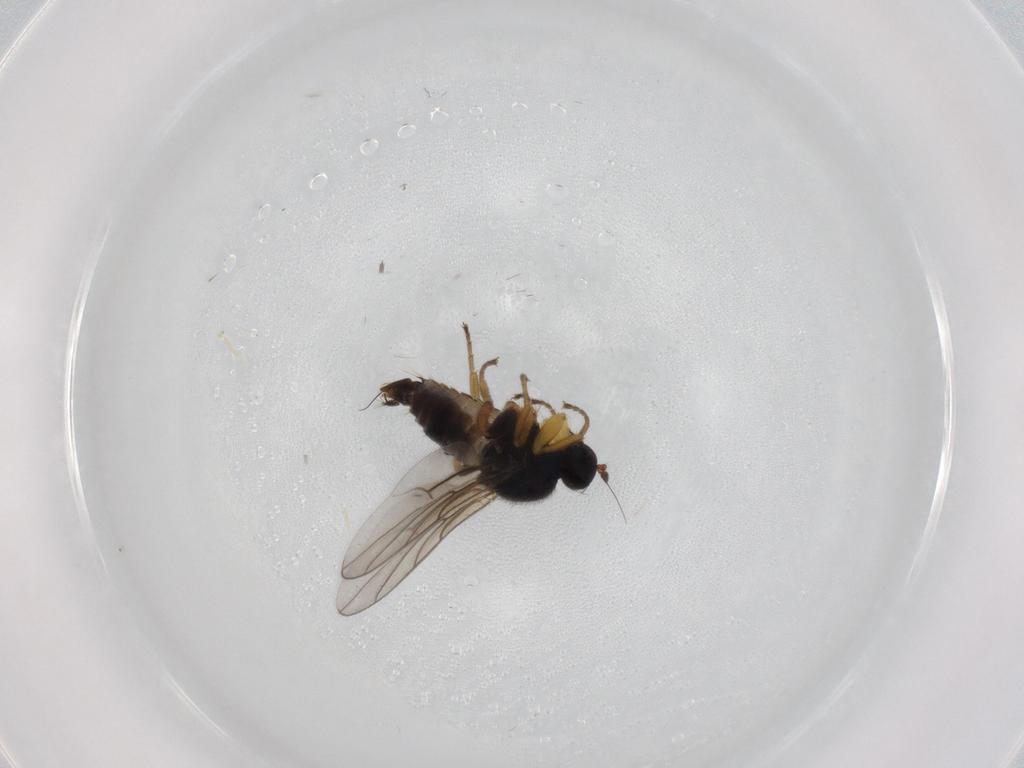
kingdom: Animalia
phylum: Arthropoda
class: Insecta
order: Diptera
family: Hybotidae
